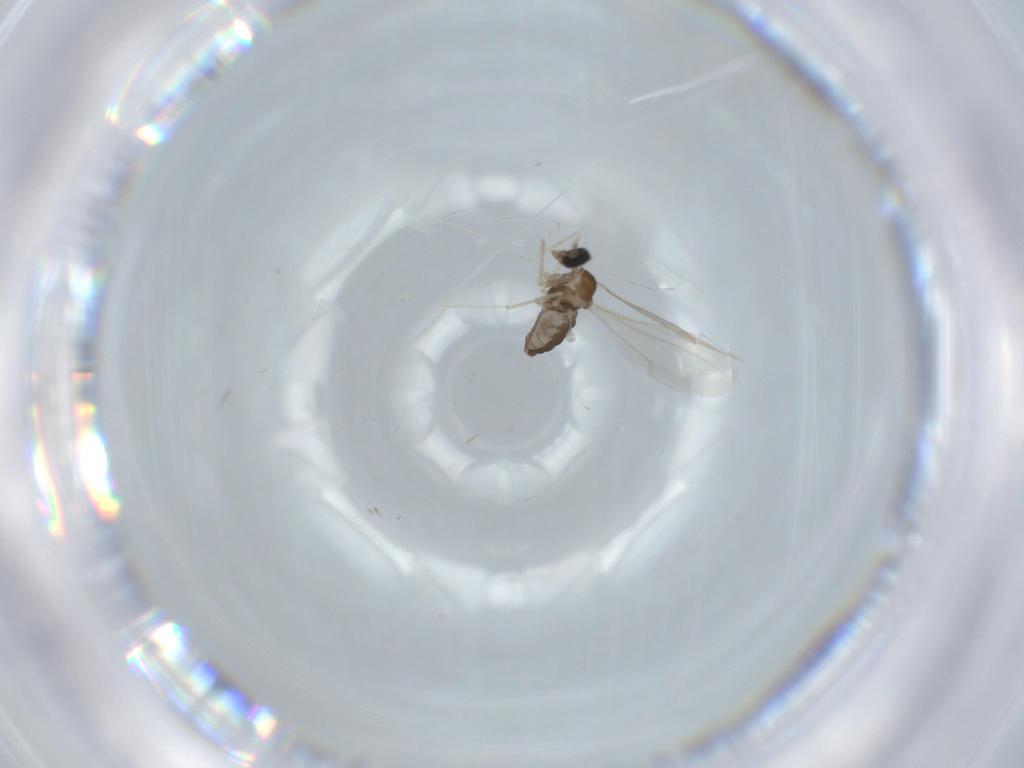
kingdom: Animalia
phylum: Arthropoda
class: Insecta
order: Diptera
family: Cecidomyiidae
